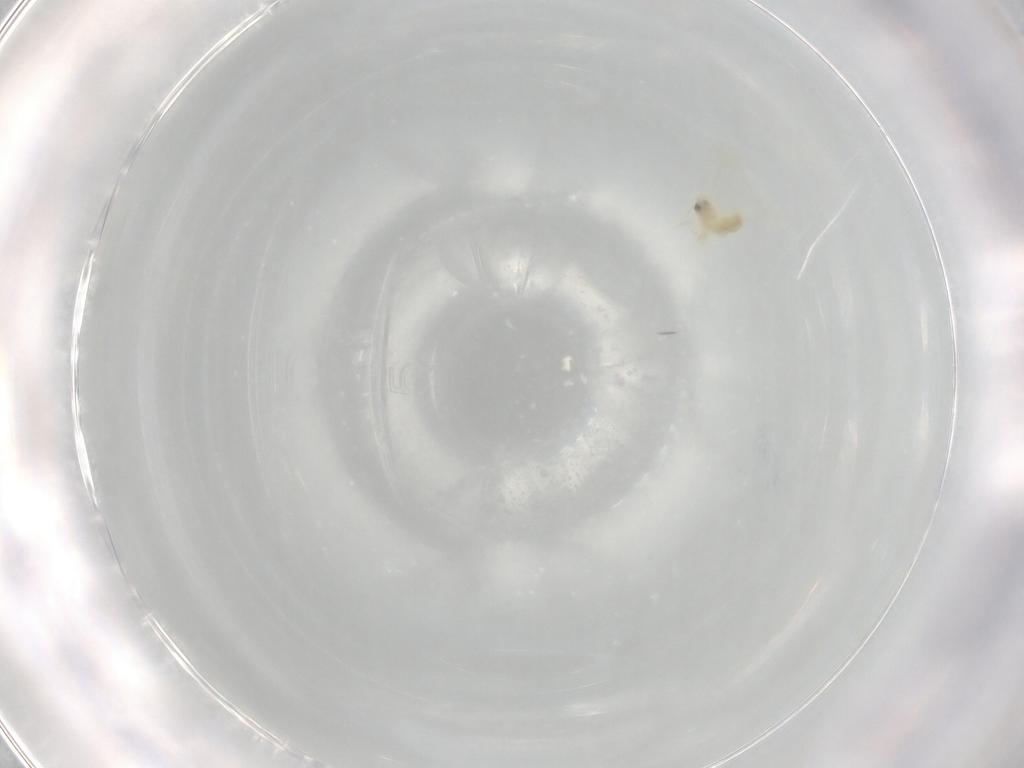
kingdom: Animalia
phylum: Arthropoda
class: Insecta
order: Hemiptera
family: Aleyrodidae
